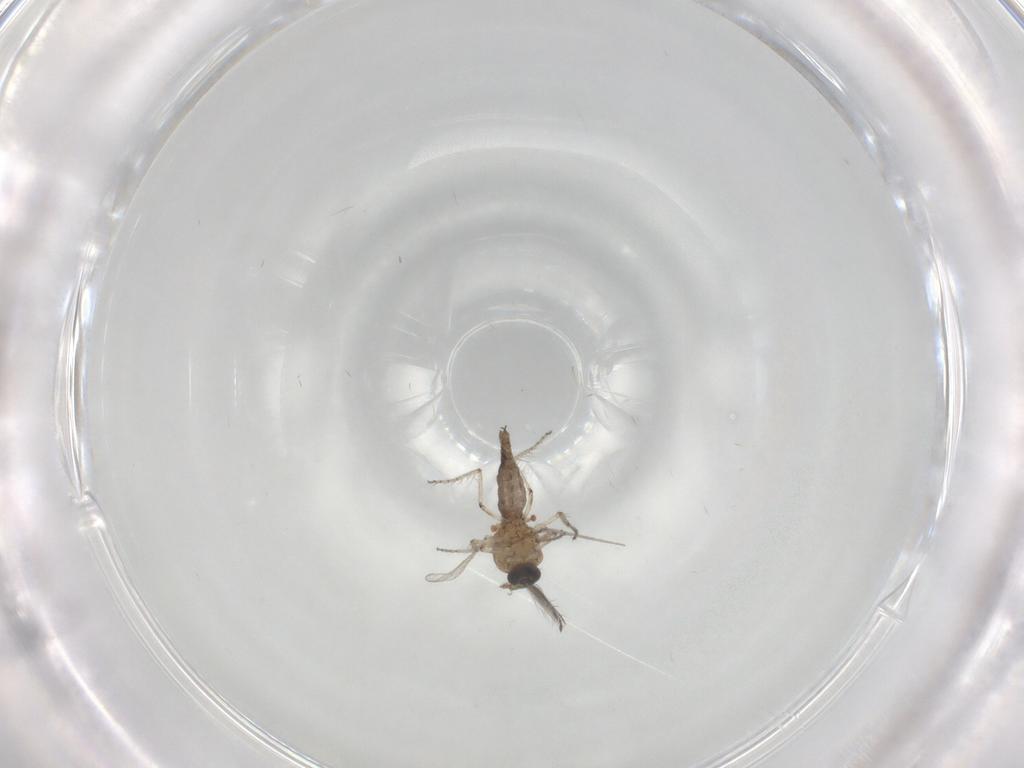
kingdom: Animalia
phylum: Arthropoda
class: Insecta
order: Diptera
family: Ceratopogonidae
